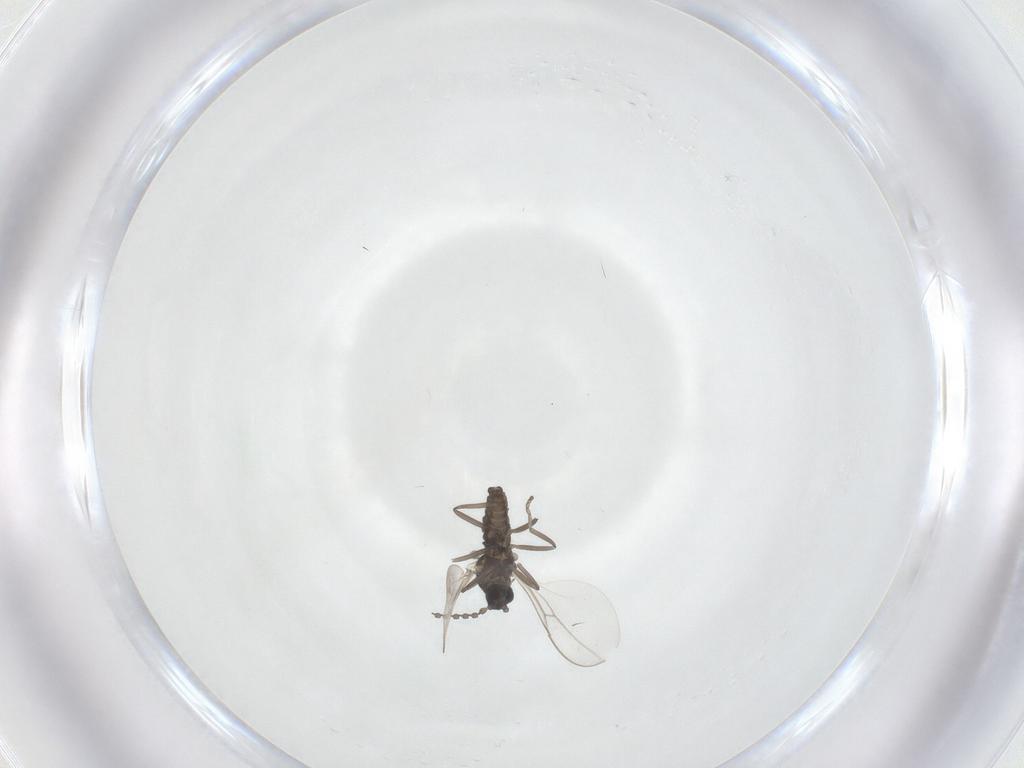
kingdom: Animalia
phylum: Arthropoda
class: Insecta
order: Diptera
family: Cecidomyiidae
